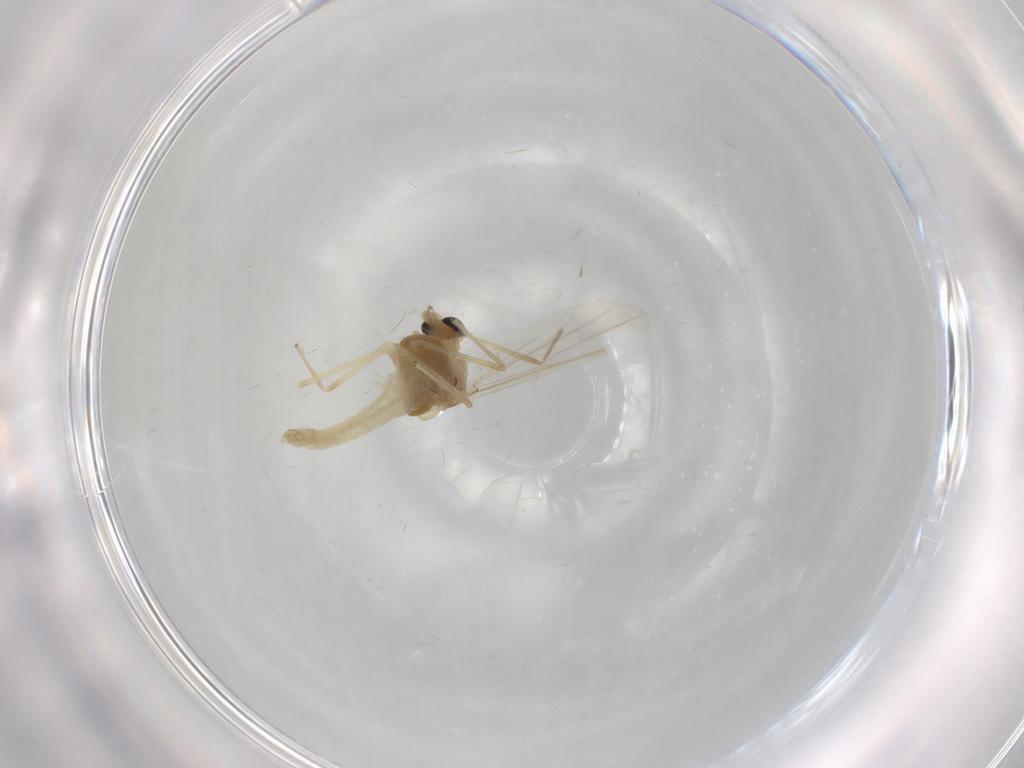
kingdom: Animalia
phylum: Arthropoda
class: Insecta
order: Diptera
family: Chironomidae
